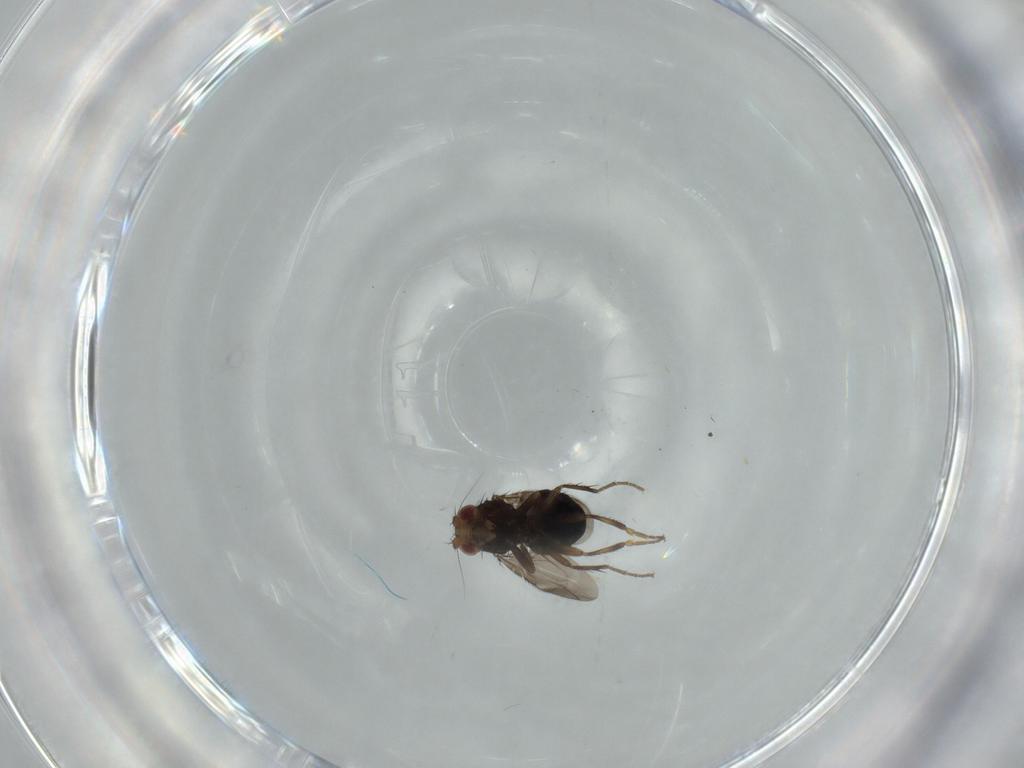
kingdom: Animalia
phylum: Arthropoda
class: Insecta
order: Diptera
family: Sphaeroceridae
